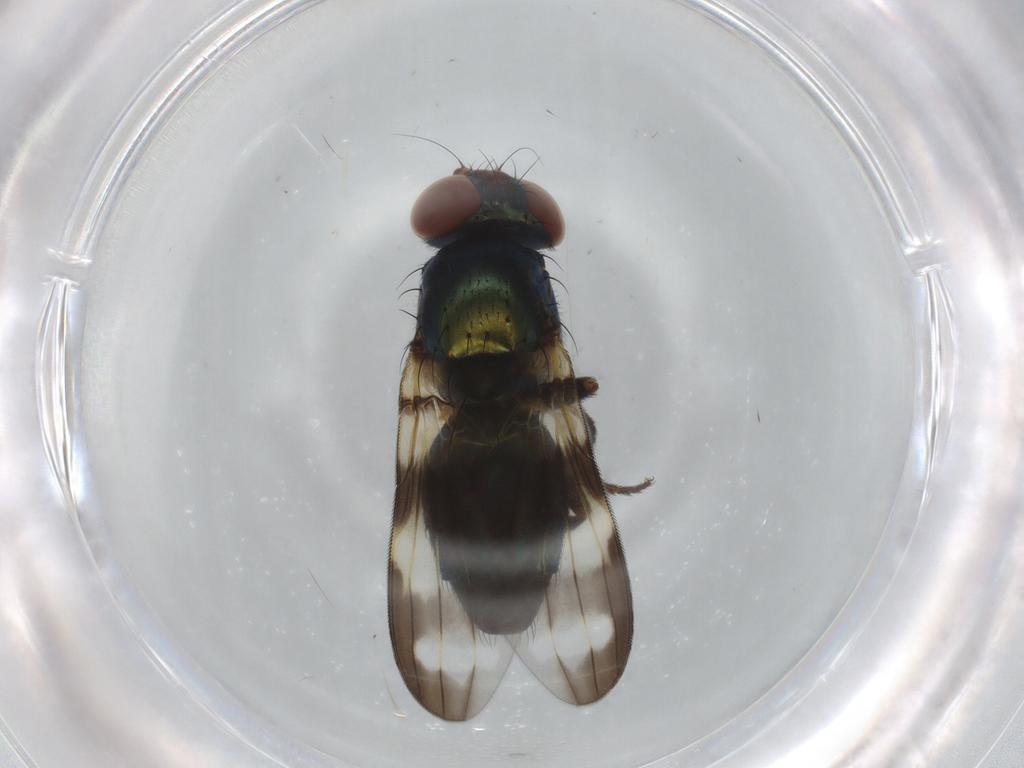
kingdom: Animalia
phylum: Arthropoda
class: Insecta
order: Diptera
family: Ulidiidae
